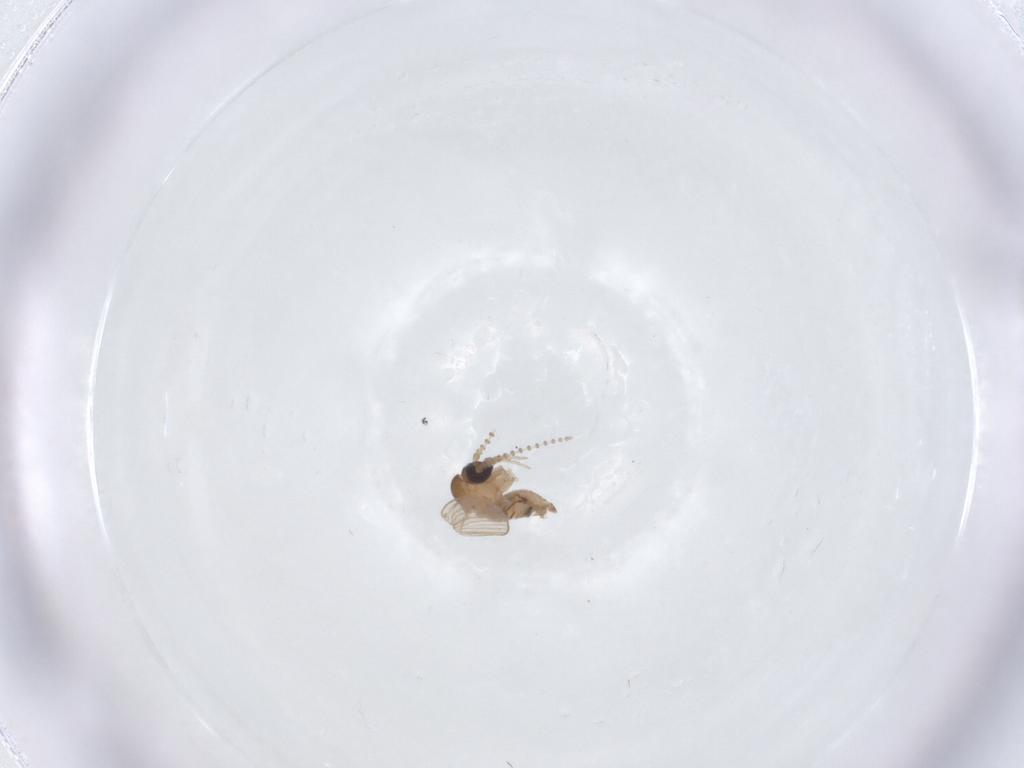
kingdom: Animalia
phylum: Arthropoda
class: Insecta
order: Diptera
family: Psychodidae
